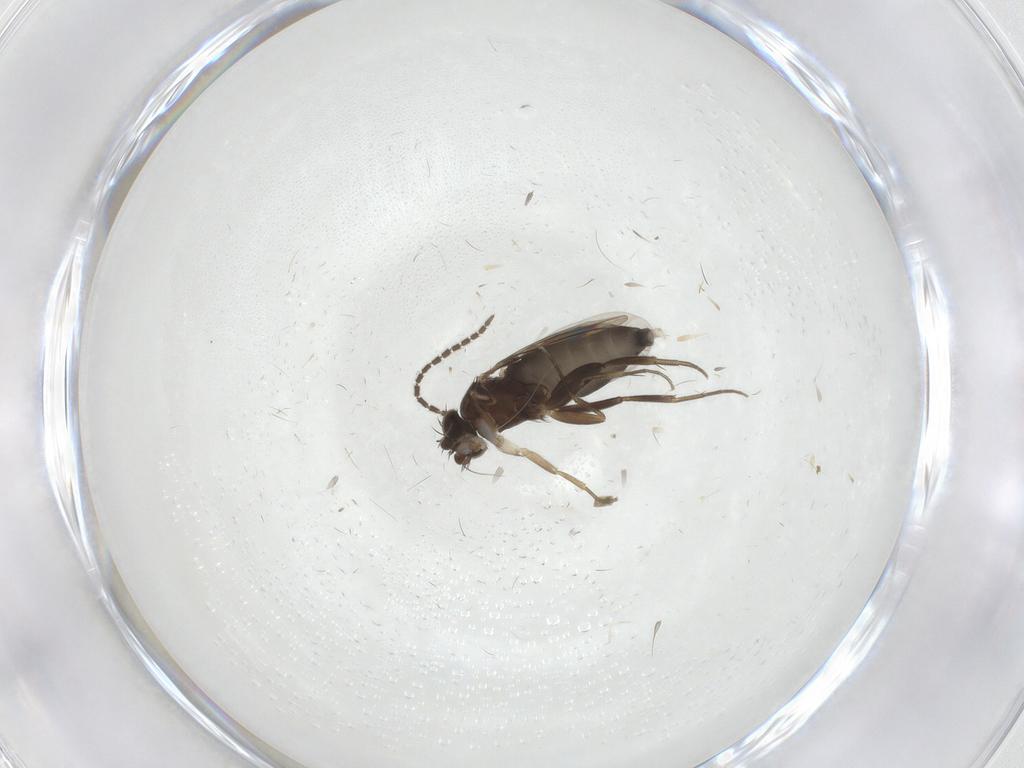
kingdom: Animalia
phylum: Arthropoda
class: Insecta
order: Diptera
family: Phoridae
